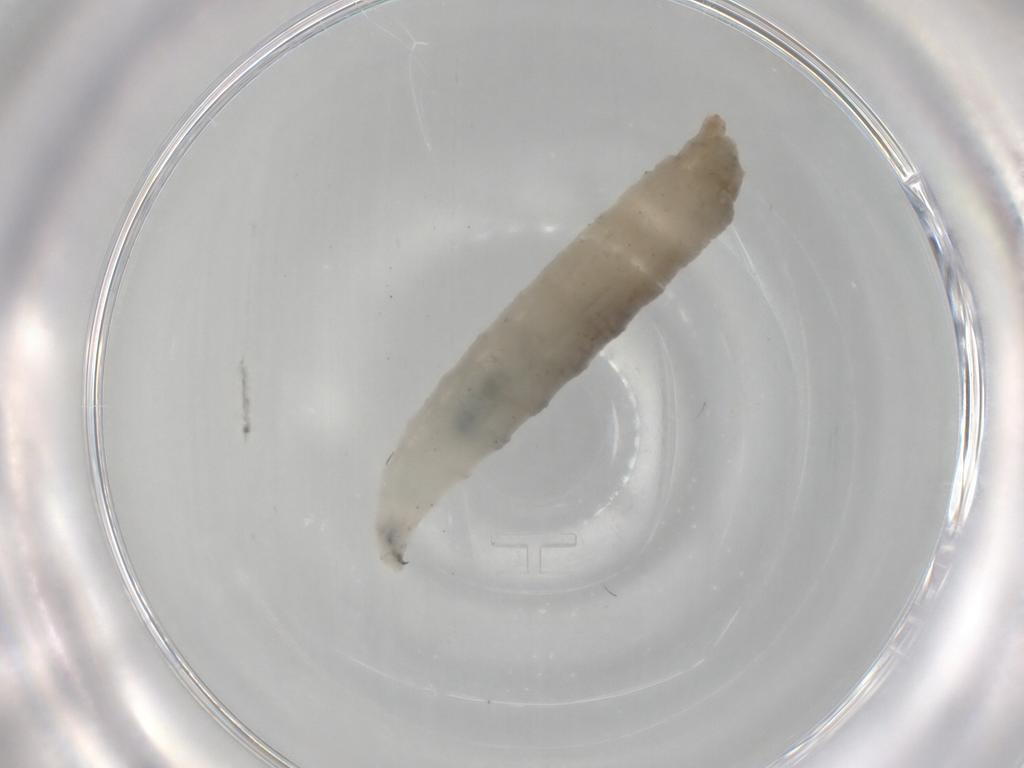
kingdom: Animalia
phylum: Arthropoda
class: Insecta
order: Diptera
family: Drosophilidae
